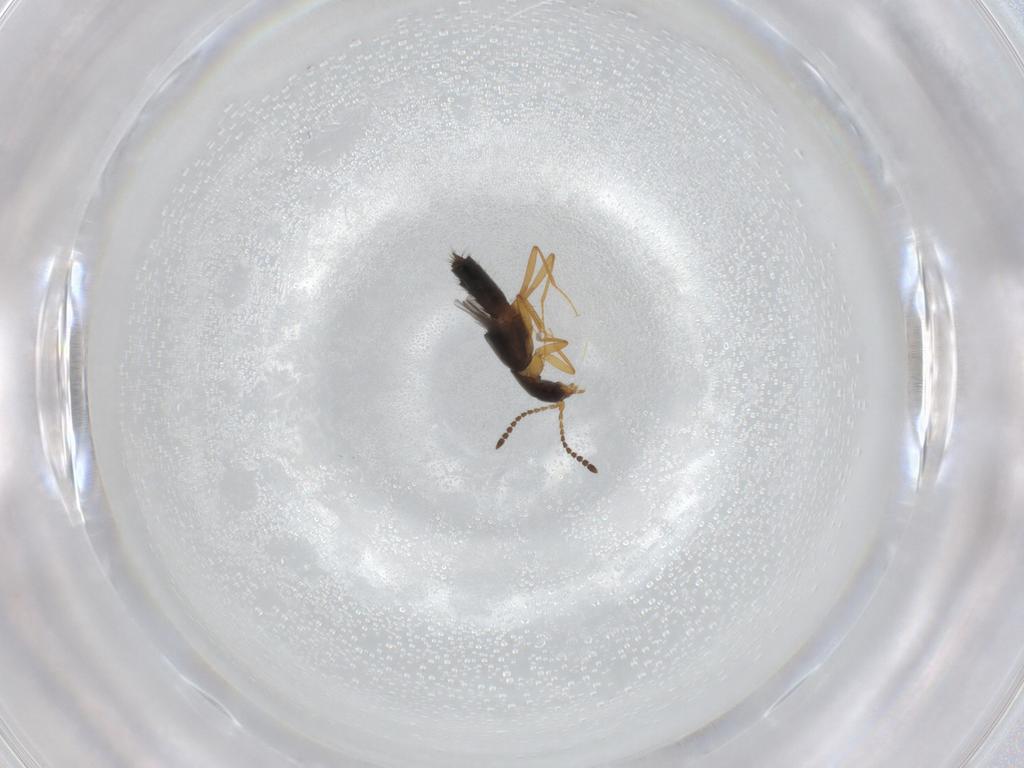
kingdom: Animalia
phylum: Arthropoda
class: Insecta
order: Coleoptera
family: Staphylinidae
